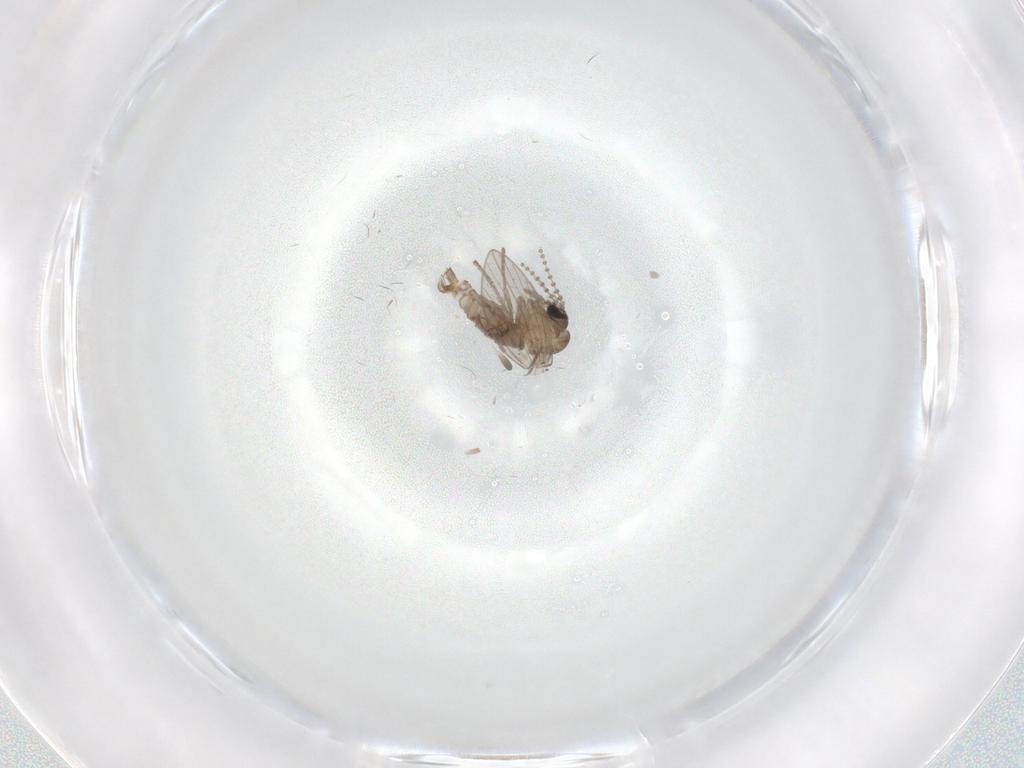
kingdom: Animalia
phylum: Arthropoda
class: Insecta
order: Diptera
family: Psychodidae
